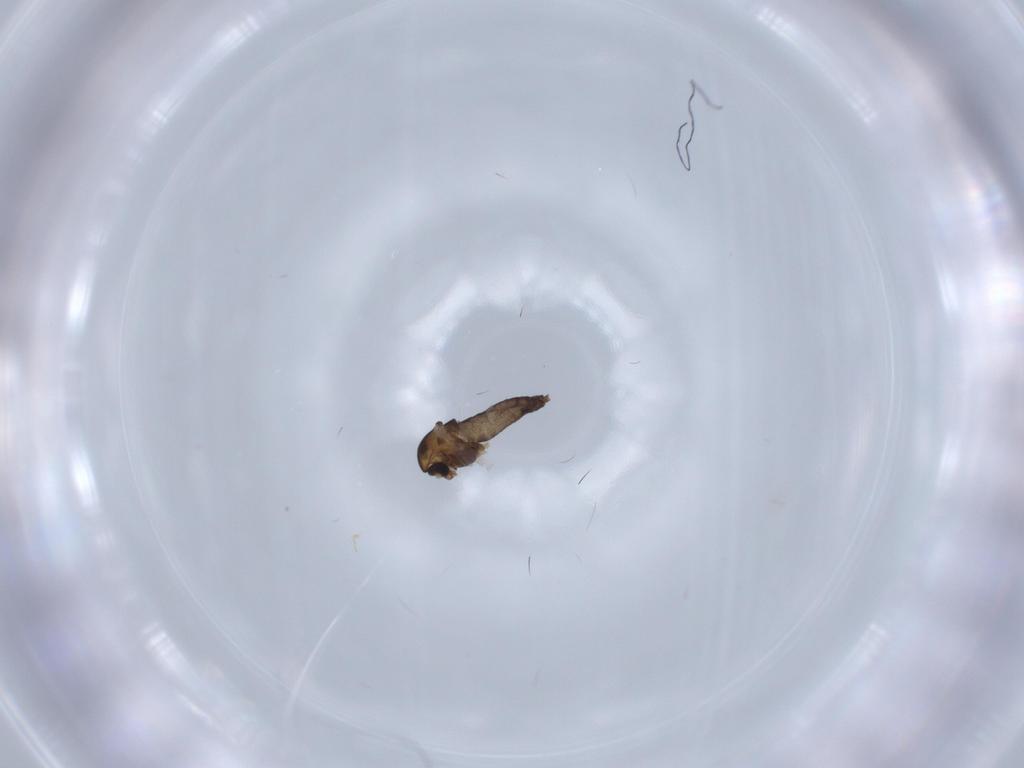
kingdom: Animalia
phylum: Arthropoda
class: Insecta
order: Diptera
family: Chironomidae
